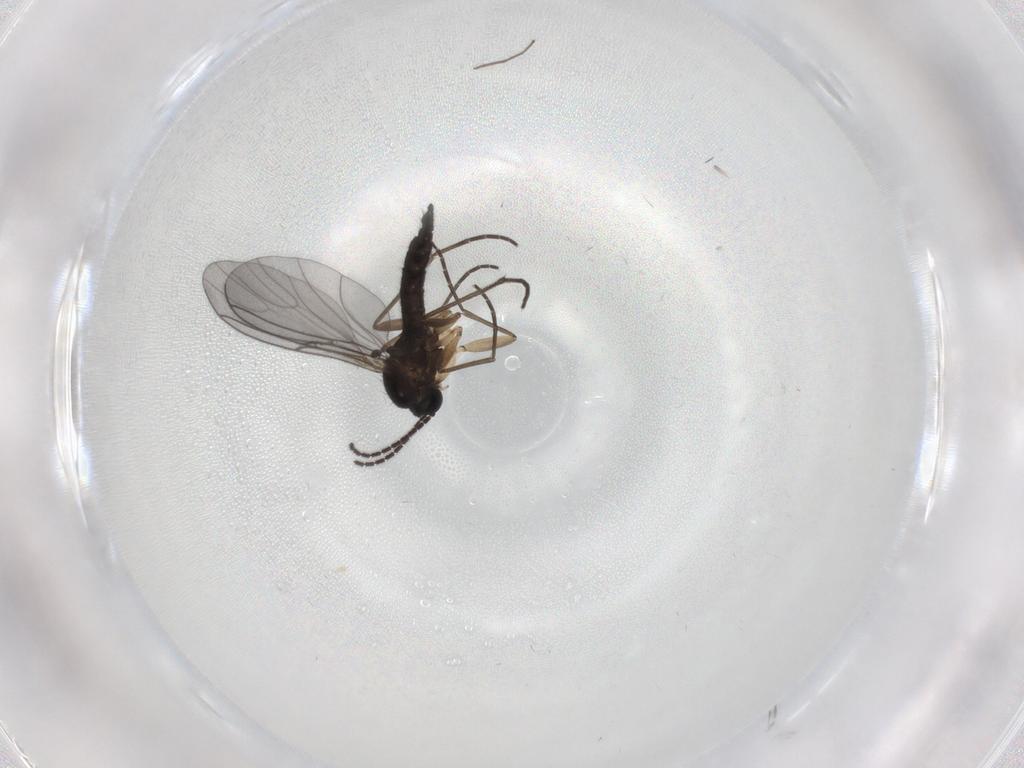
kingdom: Animalia
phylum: Arthropoda
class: Insecta
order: Diptera
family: Sciaridae
